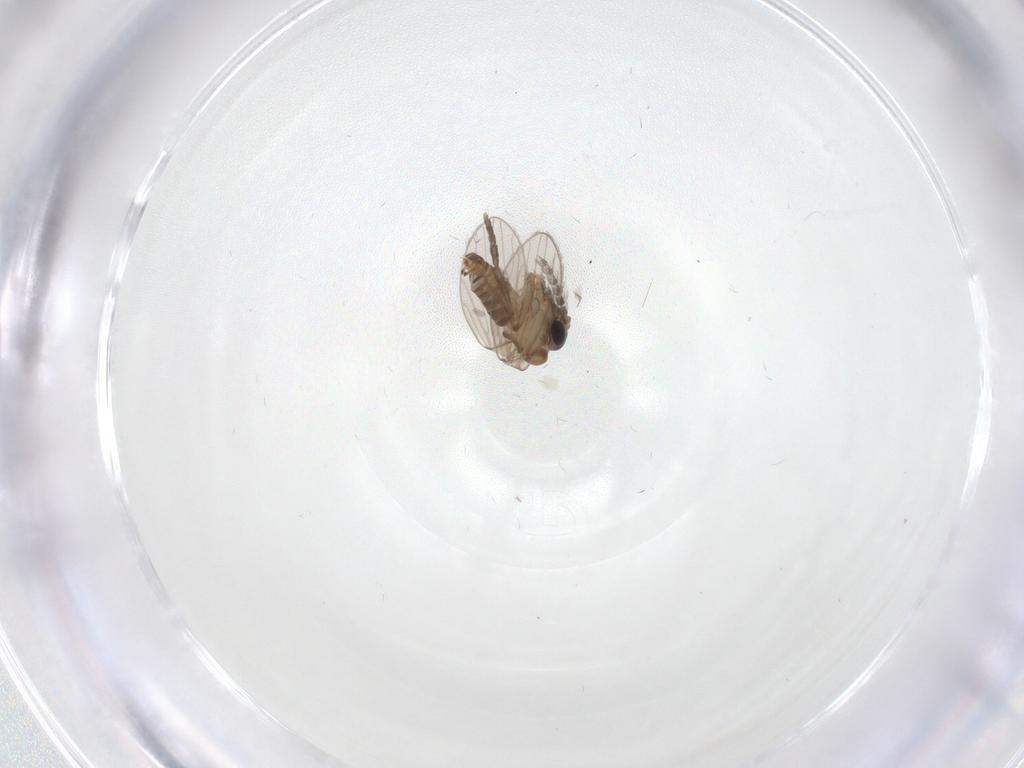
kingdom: Animalia
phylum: Arthropoda
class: Insecta
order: Diptera
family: Psychodidae
